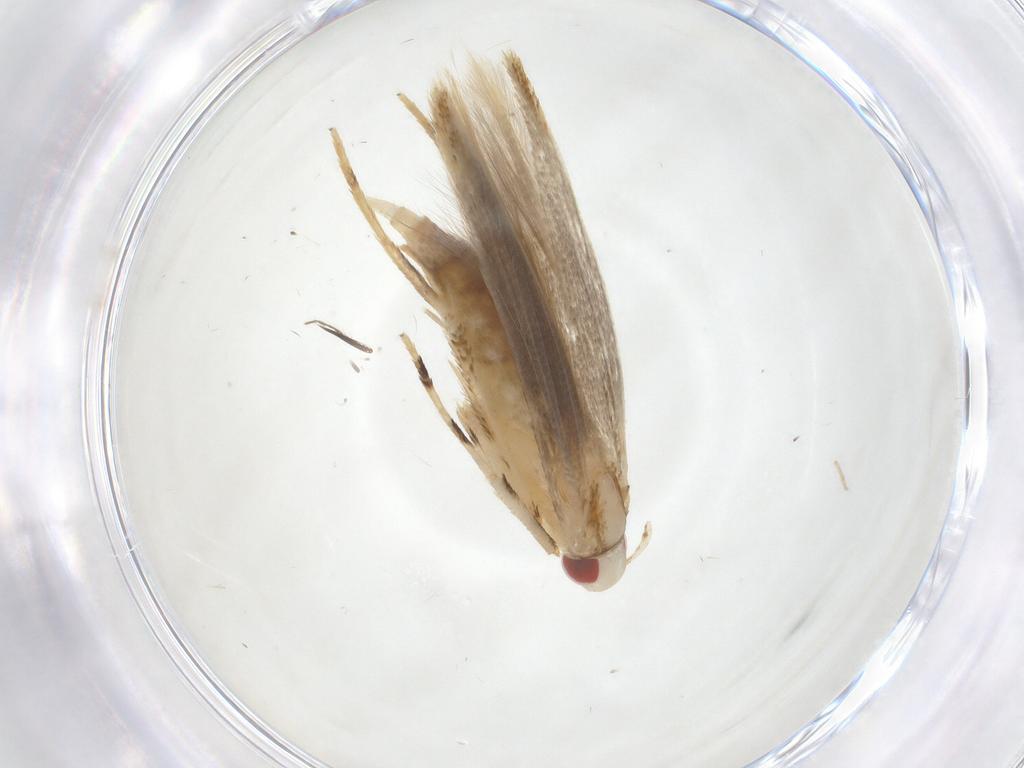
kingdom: Animalia
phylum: Arthropoda
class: Insecta
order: Lepidoptera
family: Cosmopterigidae
